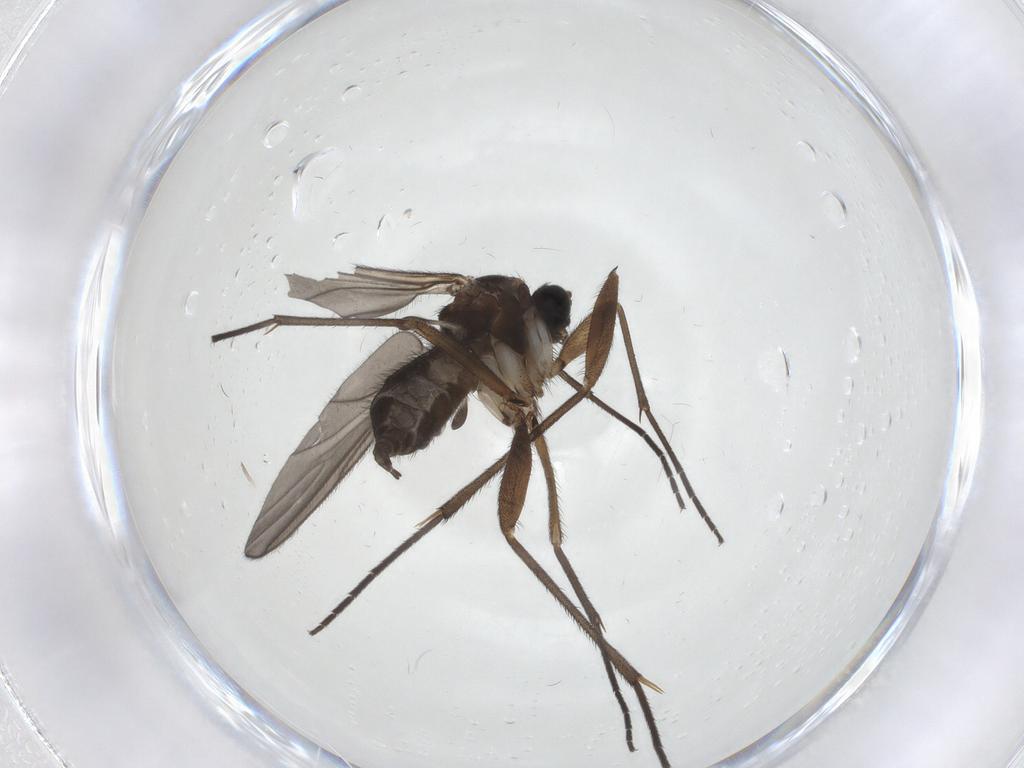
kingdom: Animalia
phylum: Arthropoda
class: Insecta
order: Diptera
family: Sciaridae
